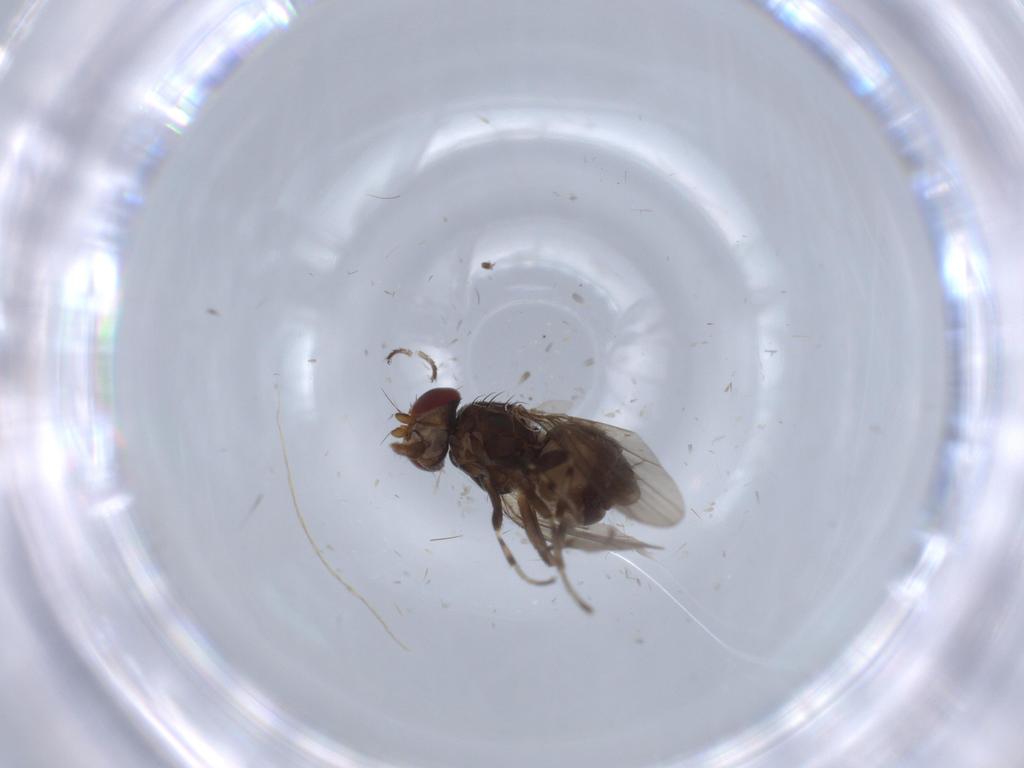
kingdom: Animalia
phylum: Arthropoda
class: Insecta
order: Diptera
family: Heleomyzidae
